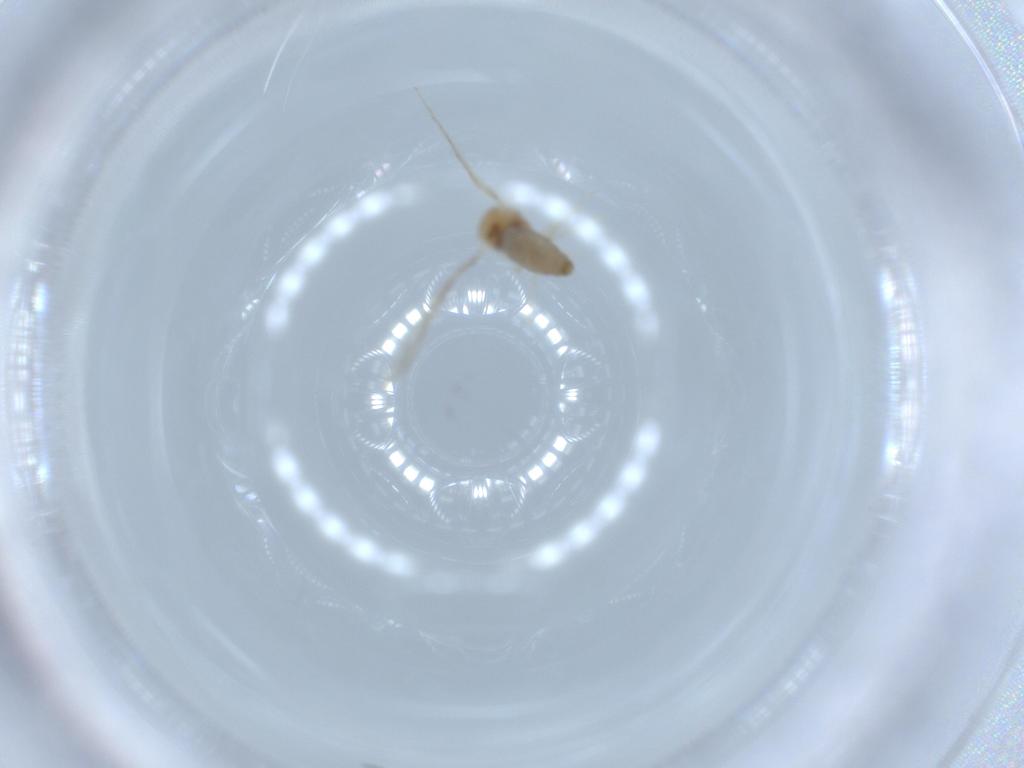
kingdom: Animalia
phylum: Arthropoda
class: Insecta
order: Diptera
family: Cecidomyiidae
